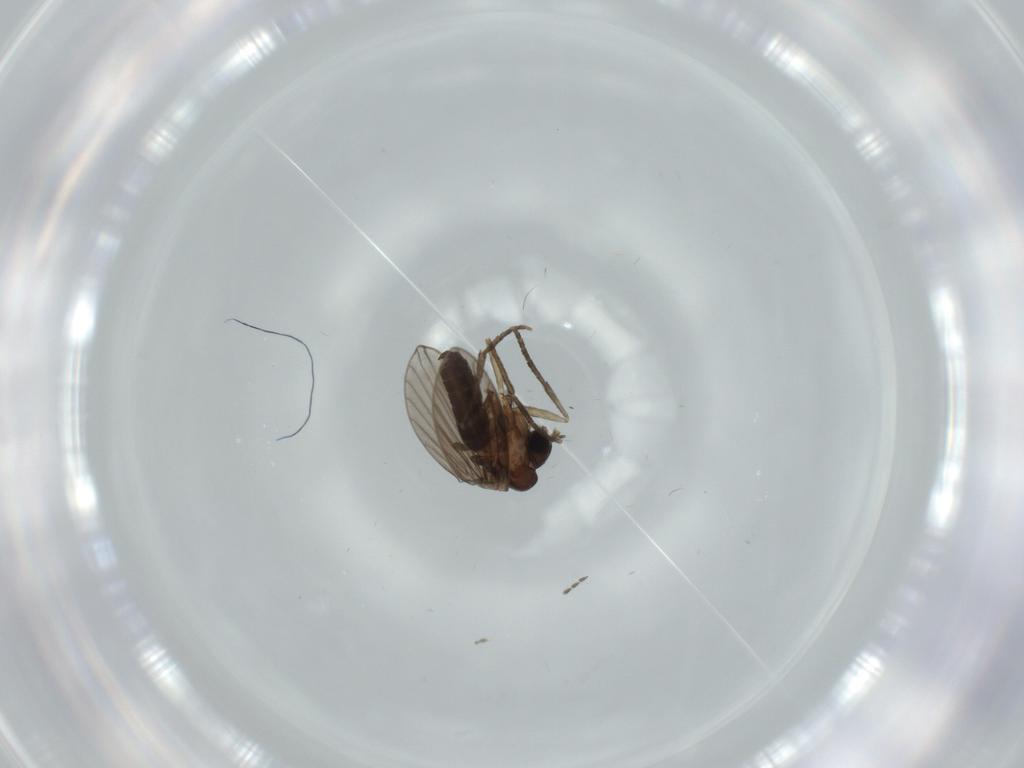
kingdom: Animalia
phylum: Arthropoda
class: Insecta
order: Diptera
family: Psychodidae
